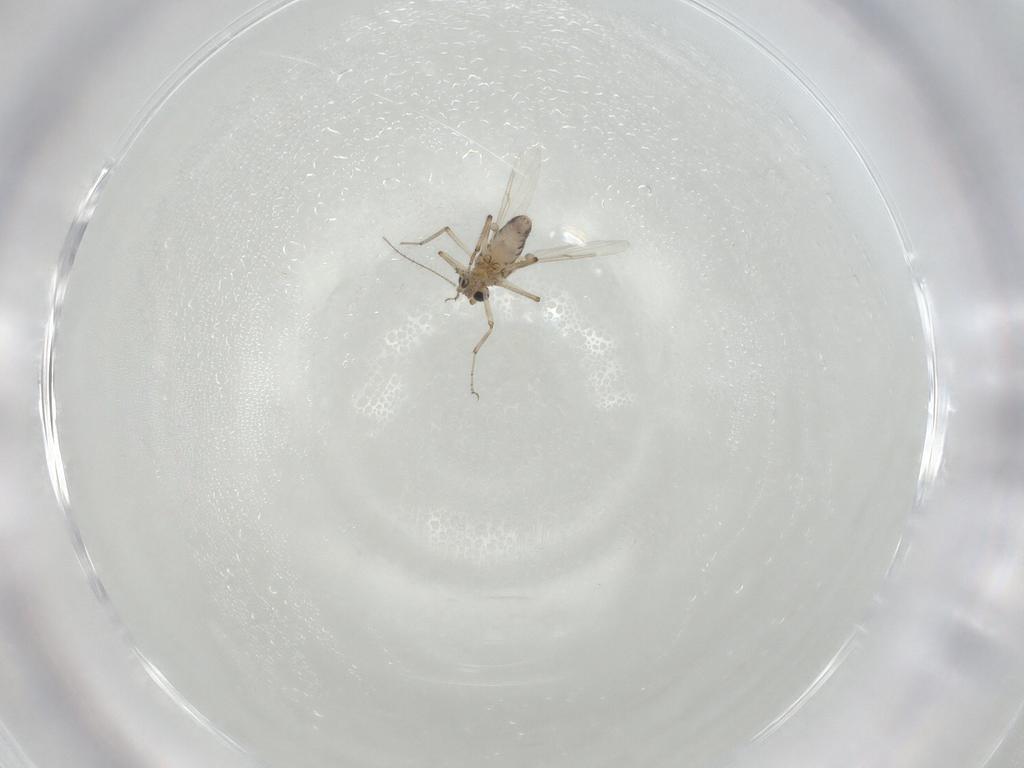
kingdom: Animalia
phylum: Arthropoda
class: Insecta
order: Diptera
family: Ceratopogonidae
